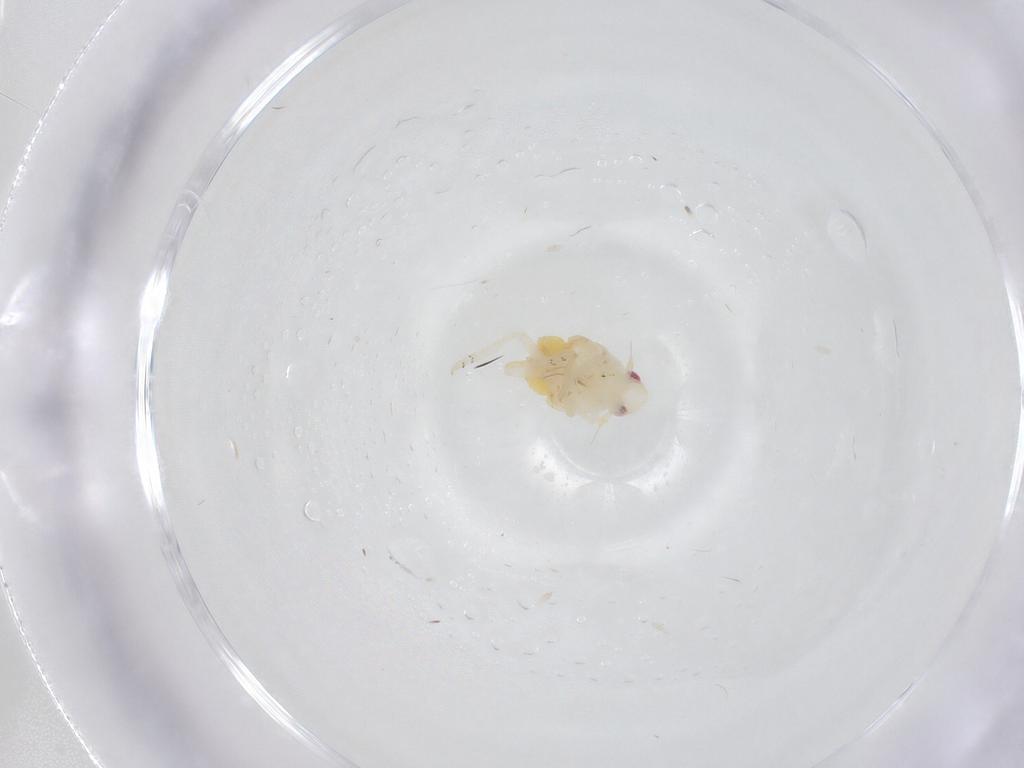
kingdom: Animalia
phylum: Arthropoda
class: Insecta
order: Hemiptera
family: Fulgoroidea_incertae_sedis
